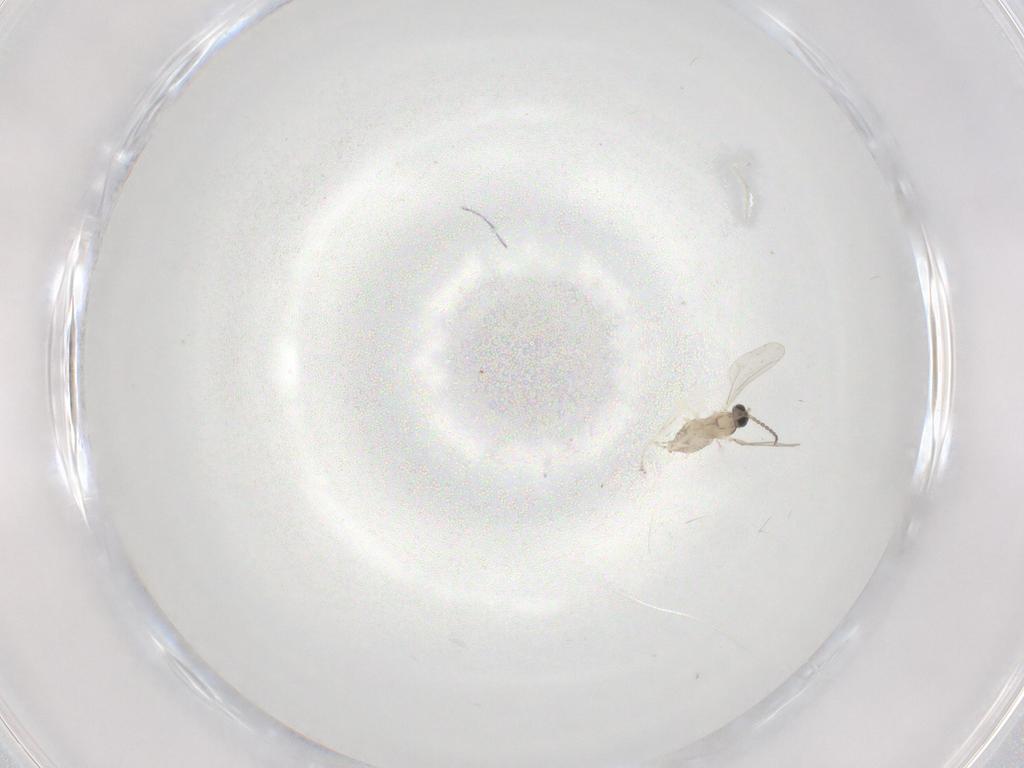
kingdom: Animalia
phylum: Arthropoda
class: Insecta
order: Diptera
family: Cecidomyiidae
